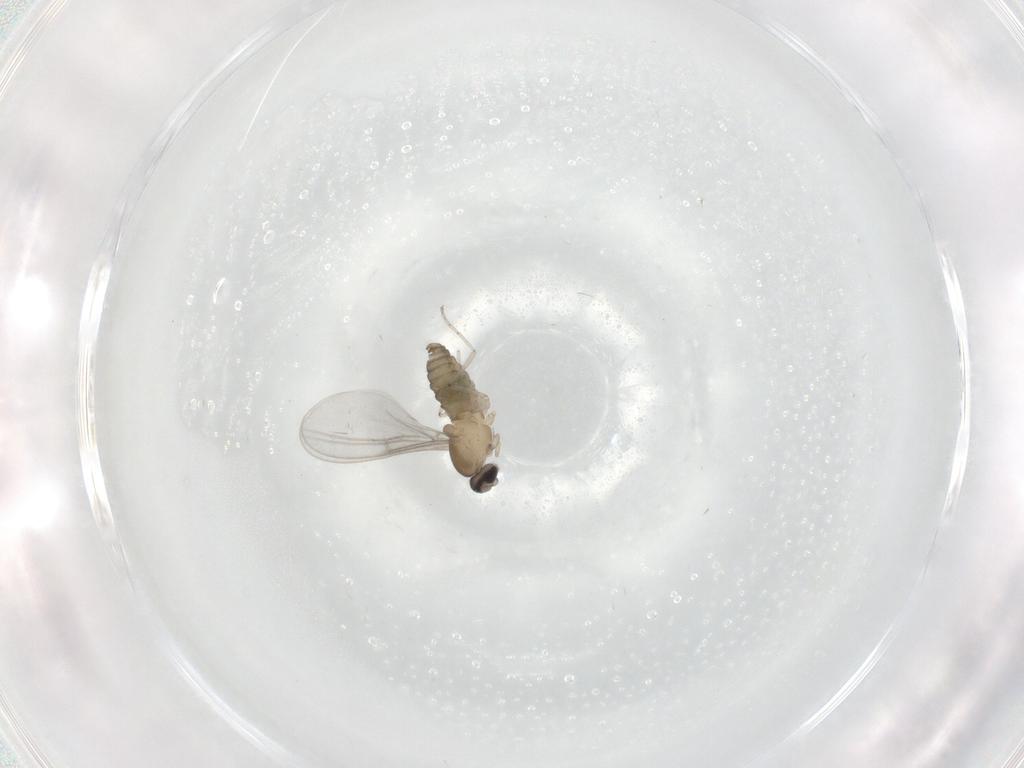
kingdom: Animalia
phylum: Arthropoda
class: Insecta
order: Diptera
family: Cecidomyiidae
